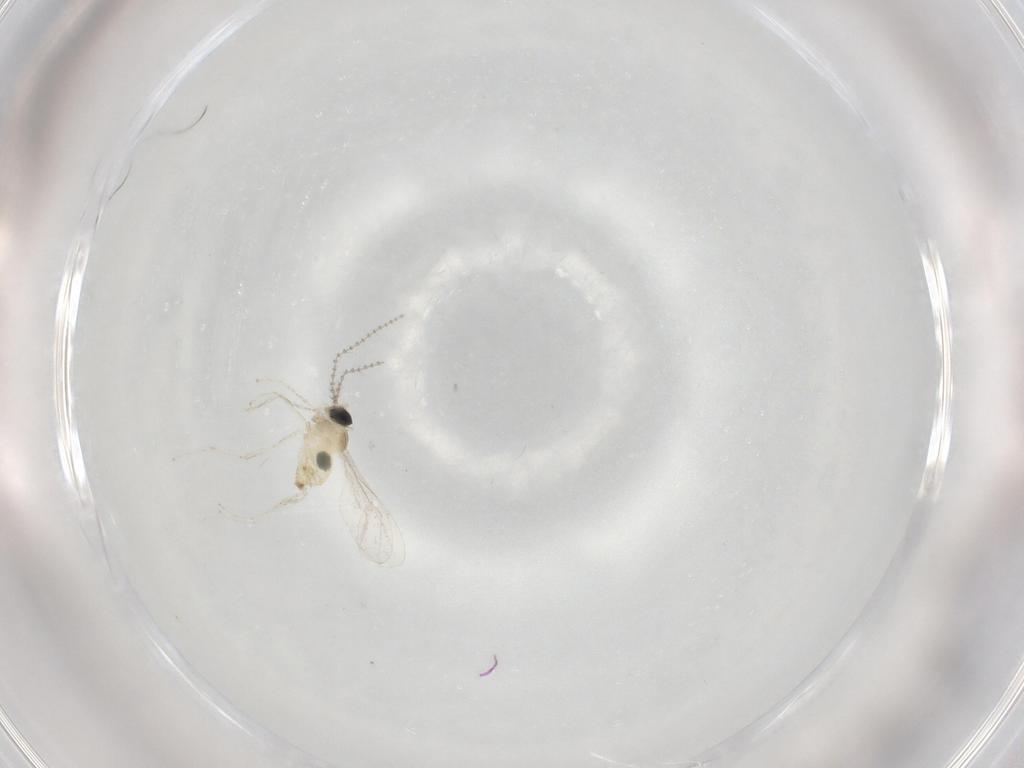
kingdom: Animalia
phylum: Arthropoda
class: Insecta
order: Diptera
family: Cecidomyiidae
